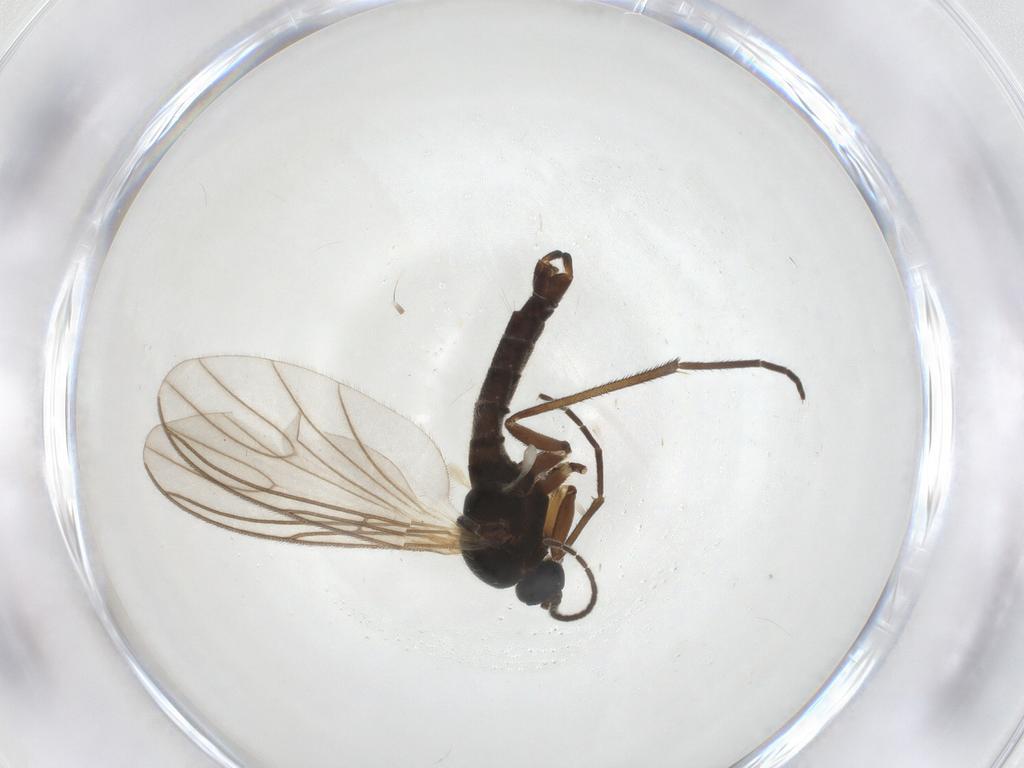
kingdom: Animalia
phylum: Arthropoda
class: Insecta
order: Diptera
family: Sciaridae
